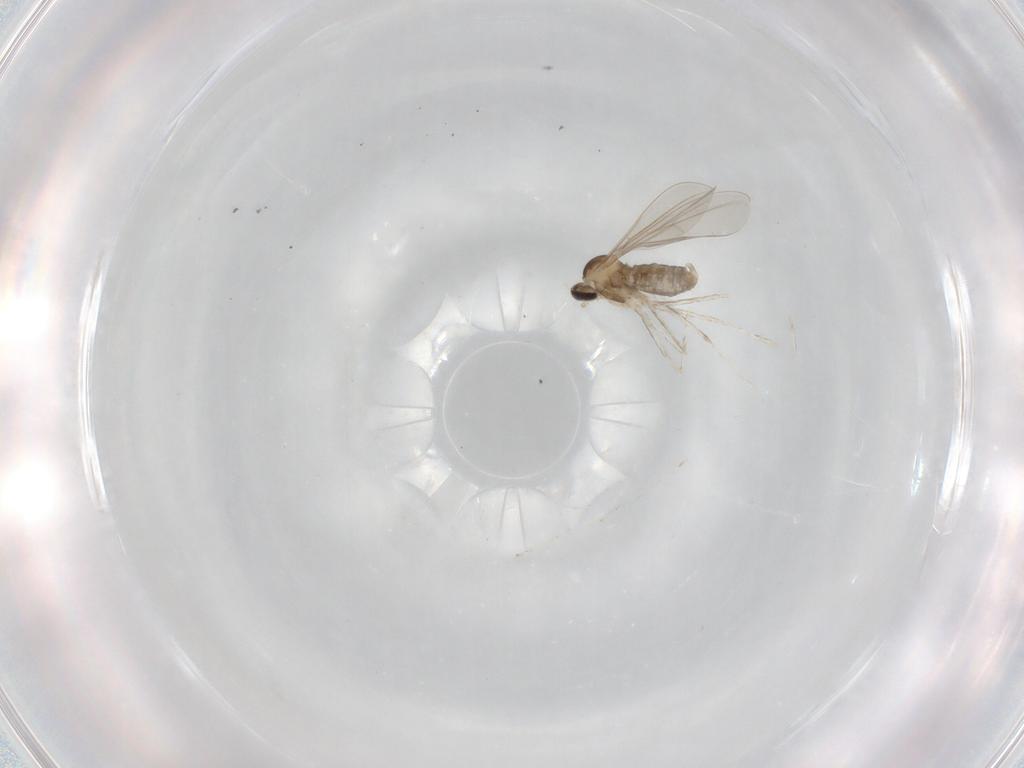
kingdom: Animalia
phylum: Arthropoda
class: Insecta
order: Diptera
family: Cecidomyiidae
